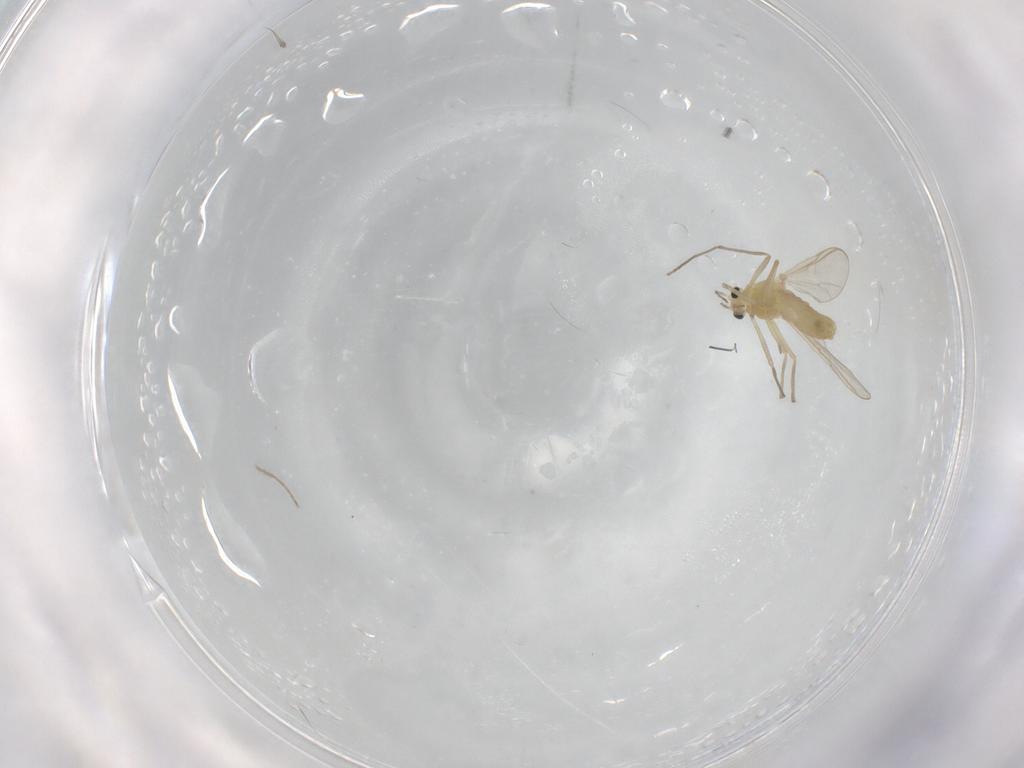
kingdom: Animalia
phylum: Arthropoda
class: Insecta
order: Diptera
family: Chironomidae
